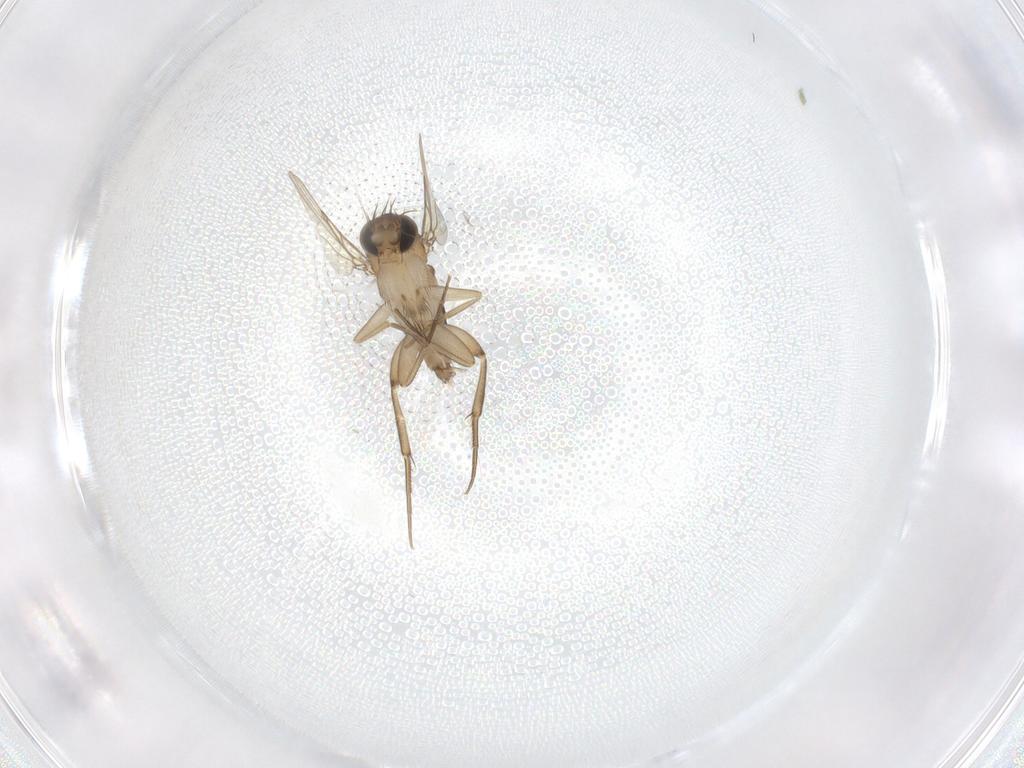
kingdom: Animalia
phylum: Arthropoda
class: Insecta
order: Diptera
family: Phoridae
